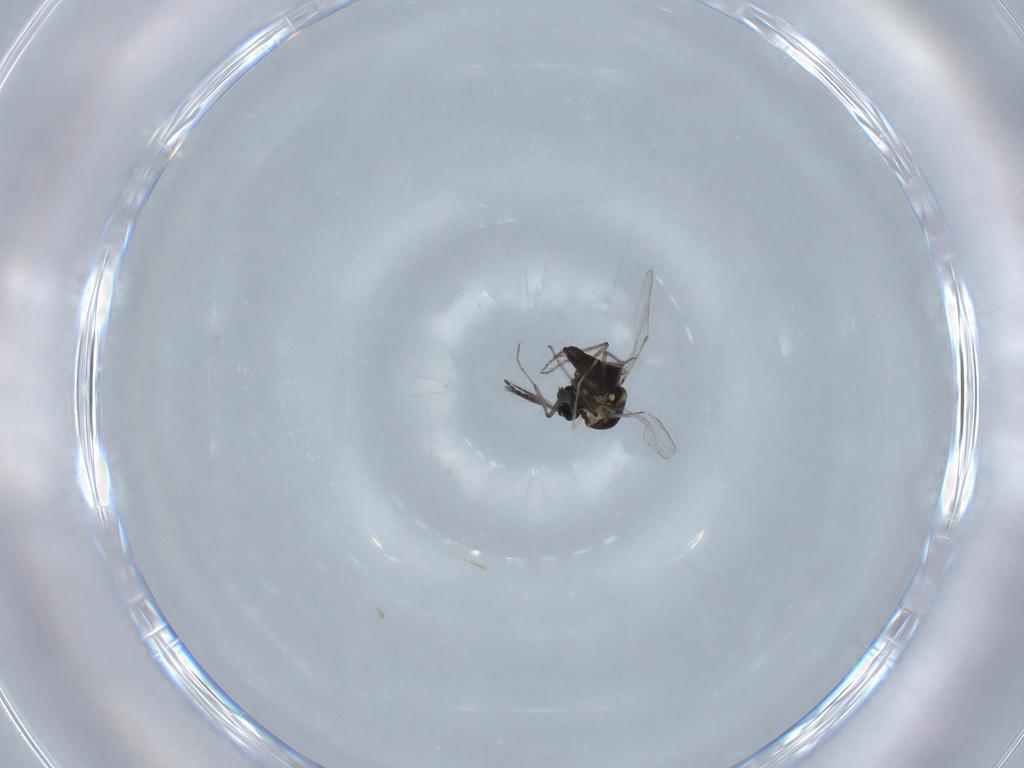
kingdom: Animalia
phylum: Arthropoda
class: Insecta
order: Diptera
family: Ceratopogonidae
